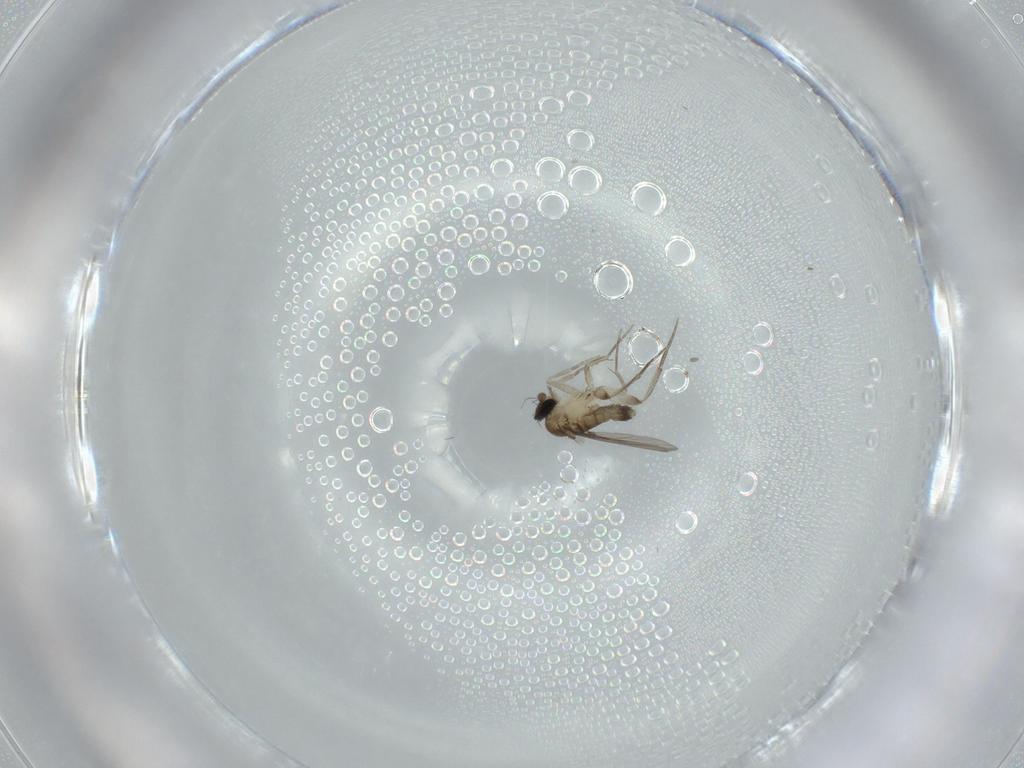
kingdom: Animalia
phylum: Arthropoda
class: Insecta
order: Diptera
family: Phoridae
